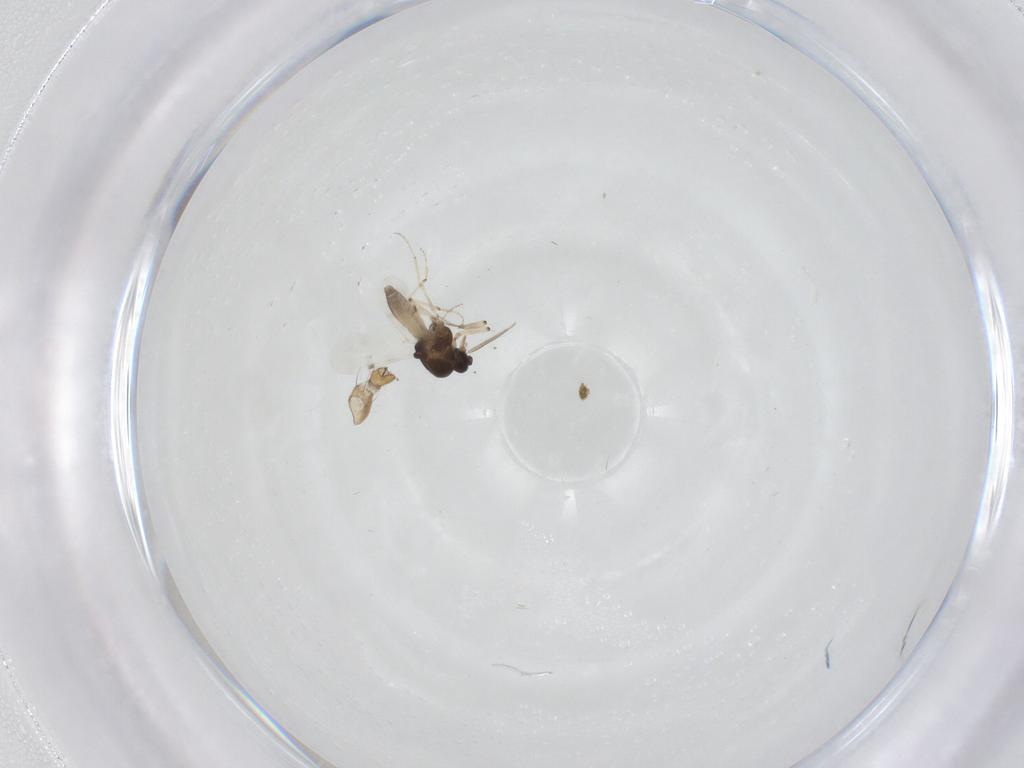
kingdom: Animalia
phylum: Arthropoda
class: Insecta
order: Diptera
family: Limoniidae
